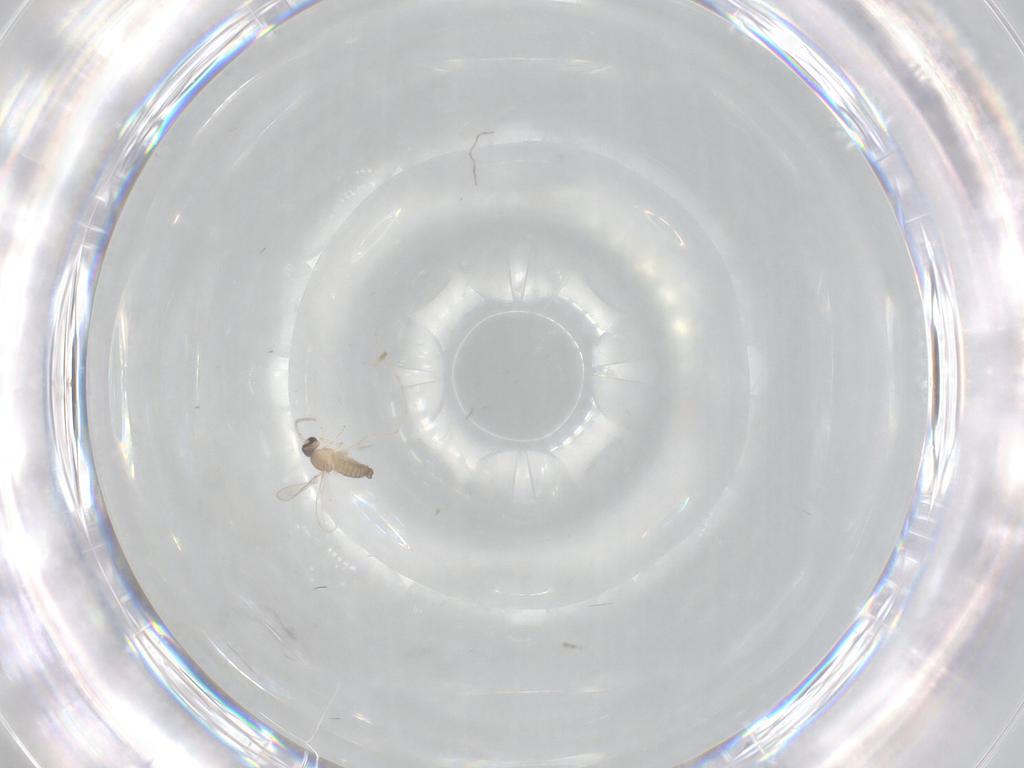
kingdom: Animalia
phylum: Arthropoda
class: Insecta
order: Diptera
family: Cecidomyiidae
